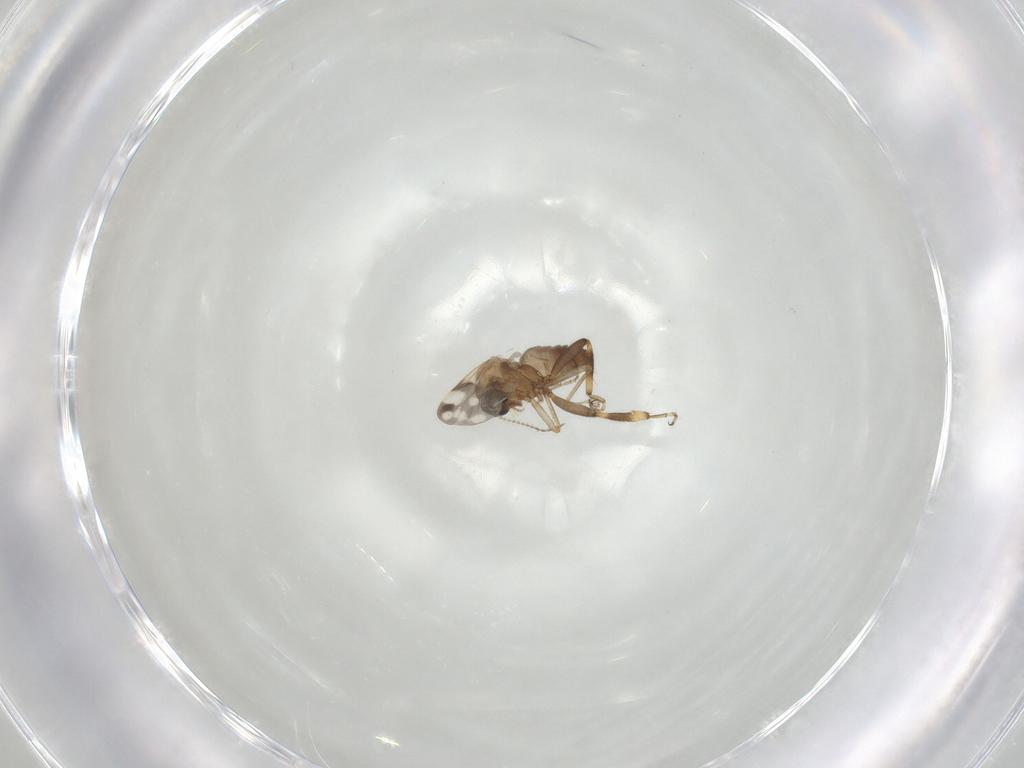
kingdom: Animalia
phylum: Arthropoda
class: Insecta
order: Diptera
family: Ceratopogonidae
